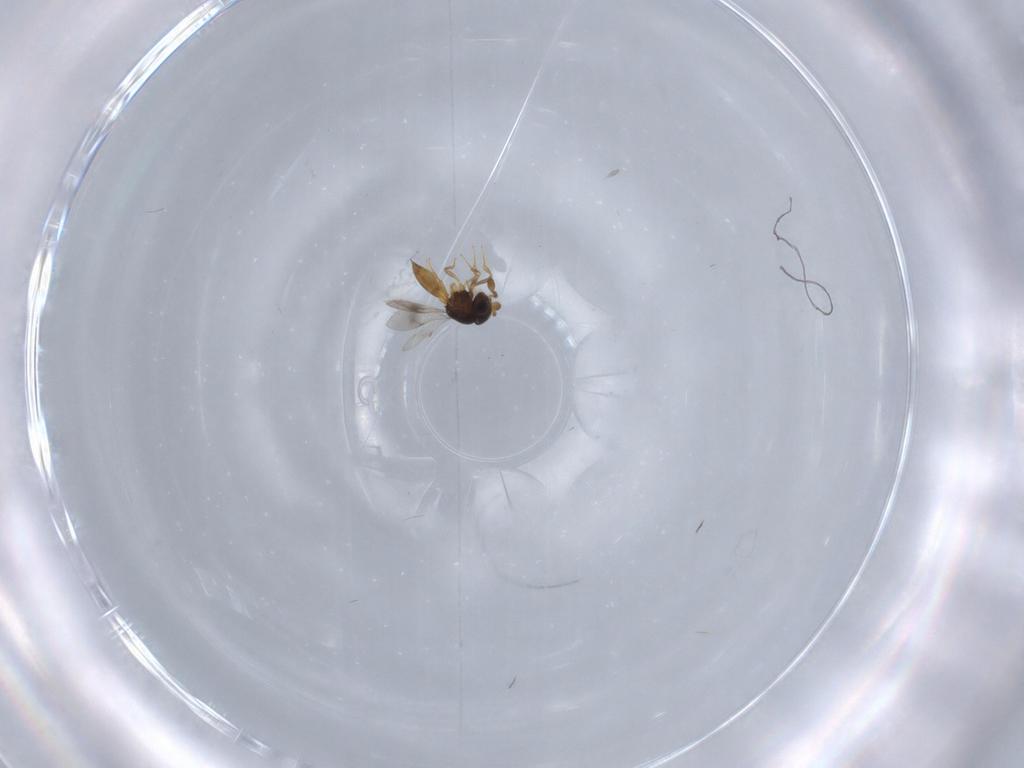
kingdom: Animalia
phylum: Arthropoda
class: Insecta
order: Hymenoptera
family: Scelionidae
